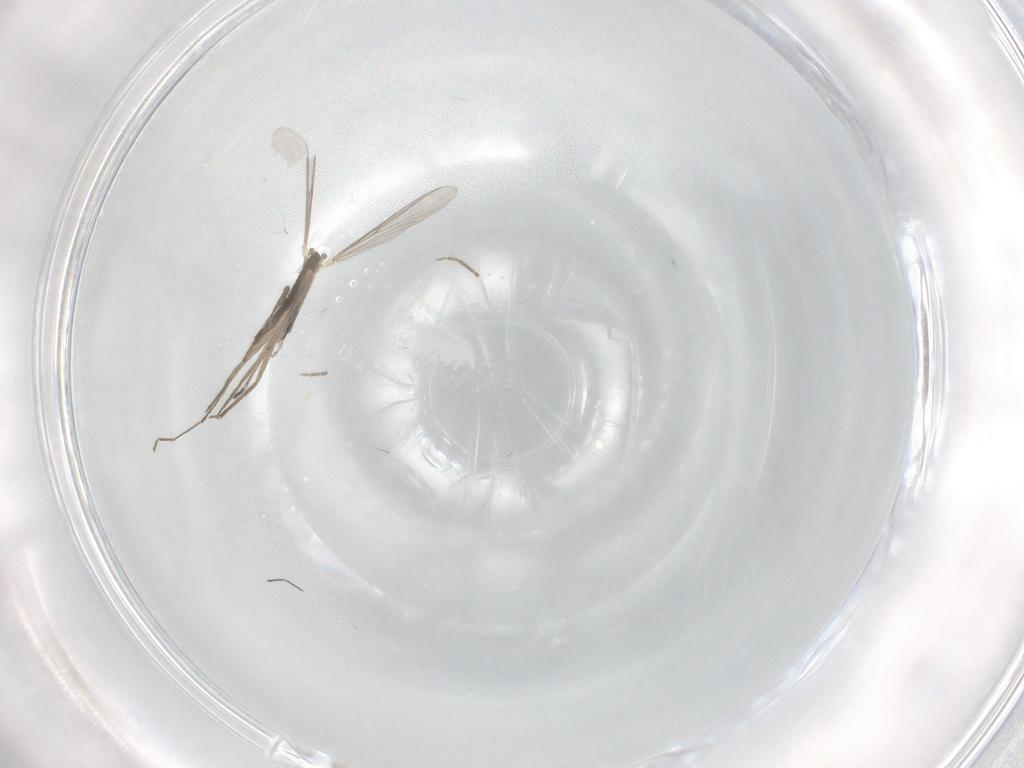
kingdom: Animalia
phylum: Arthropoda
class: Insecta
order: Diptera
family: Chironomidae
